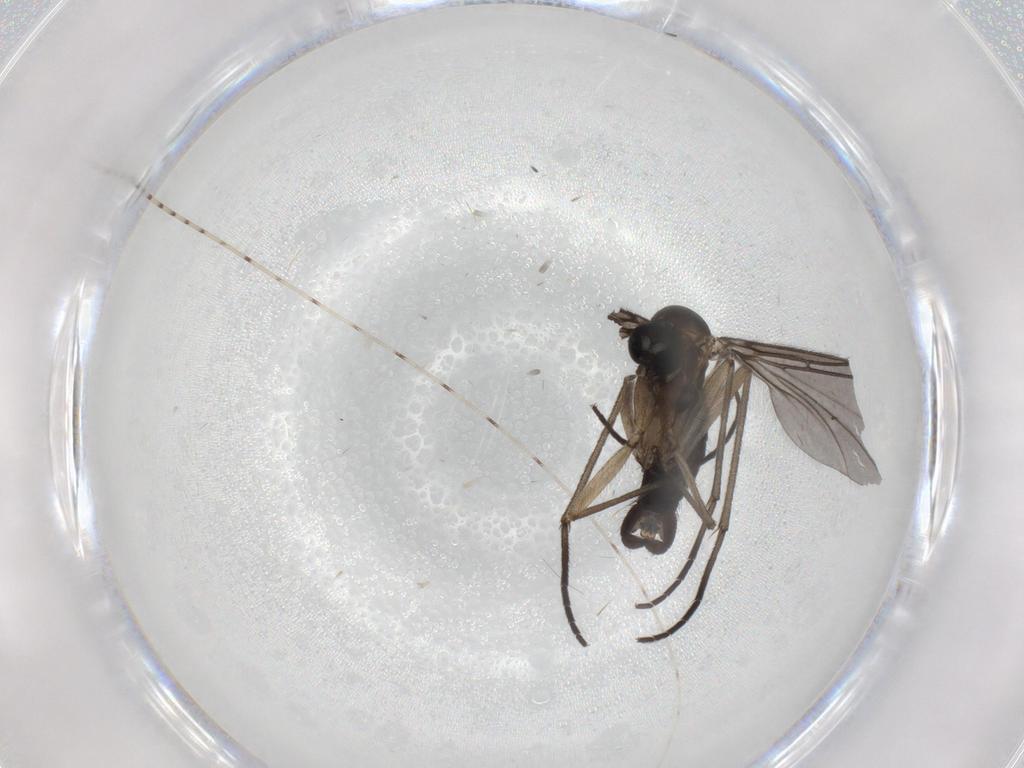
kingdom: Animalia
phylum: Arthropoda
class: Insecta
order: Diptera
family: Sciaridae
